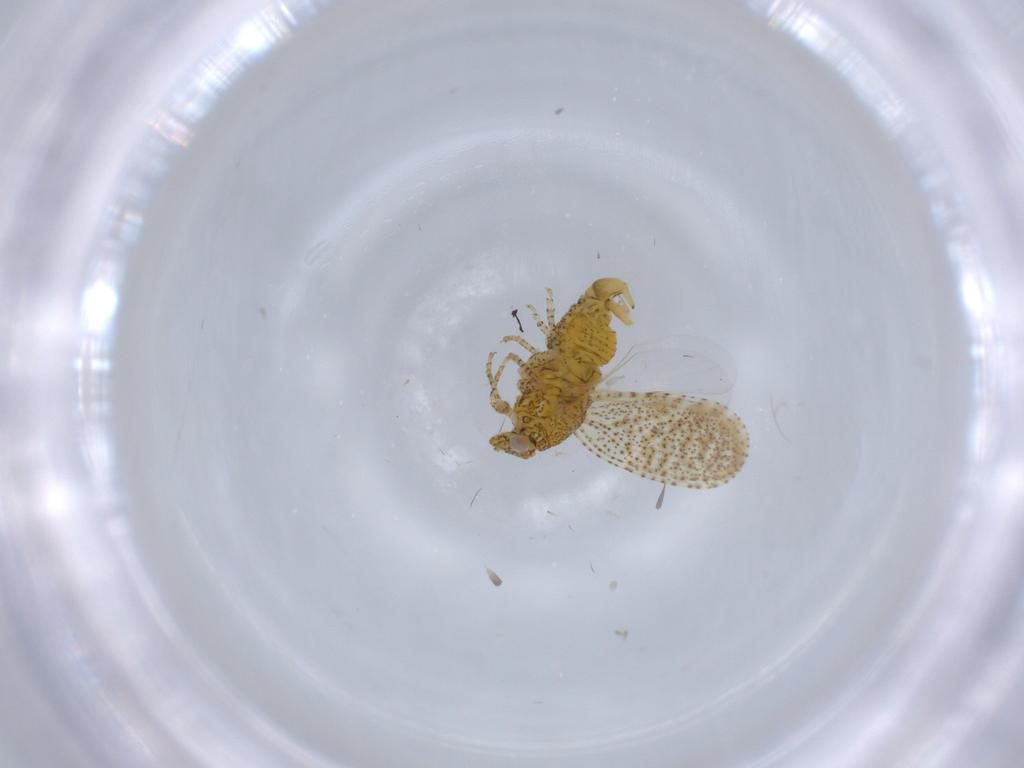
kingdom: Animalia
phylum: Arthropoda
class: Insecta
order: Hemiptera
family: Psyllidae
